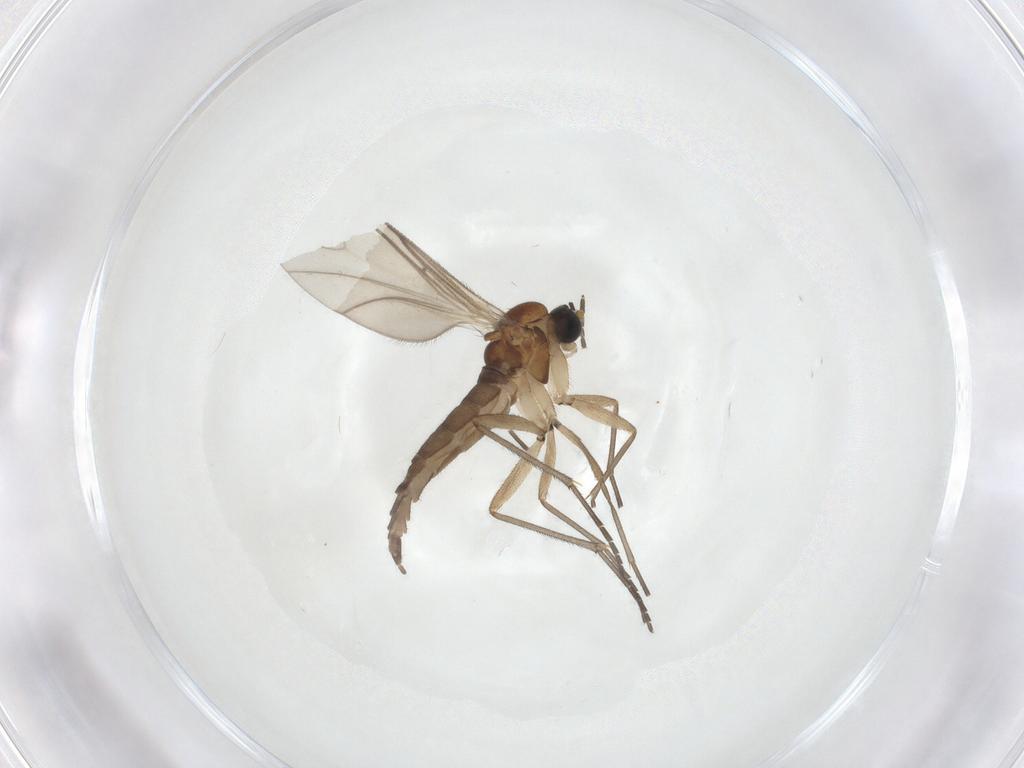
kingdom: Animalia
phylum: Arthropoda
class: Insecta
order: Diptera
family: Sciaridae
